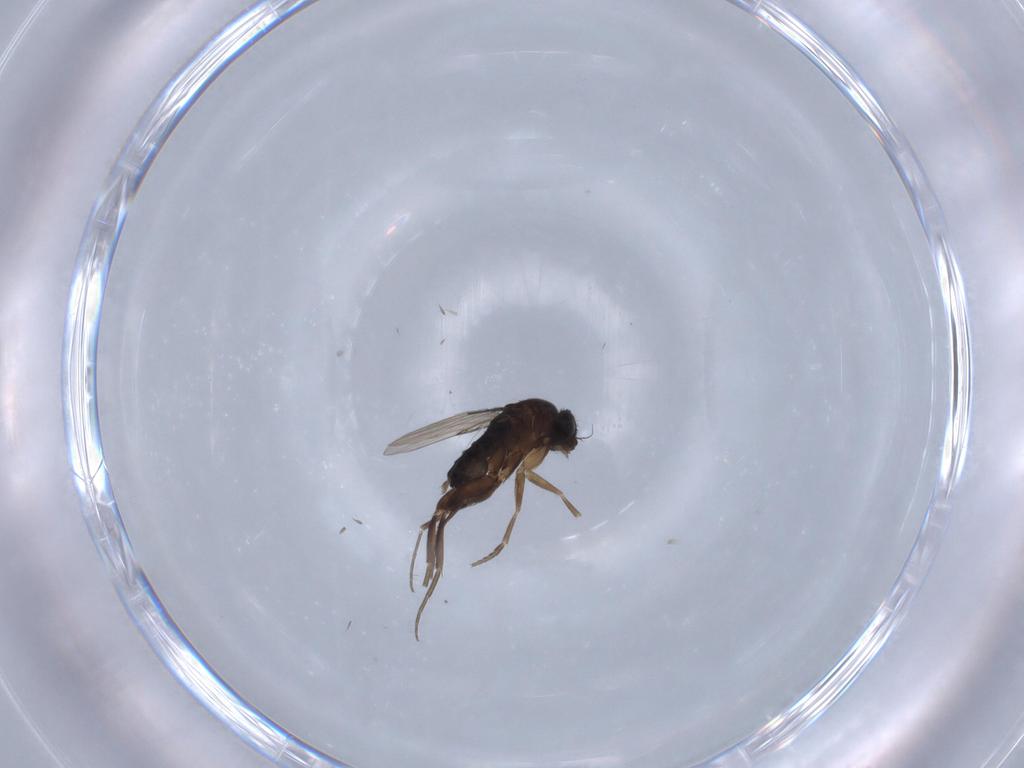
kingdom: Animalia
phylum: Arthropoda
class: Insecta
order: Diptera
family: Phoridae
